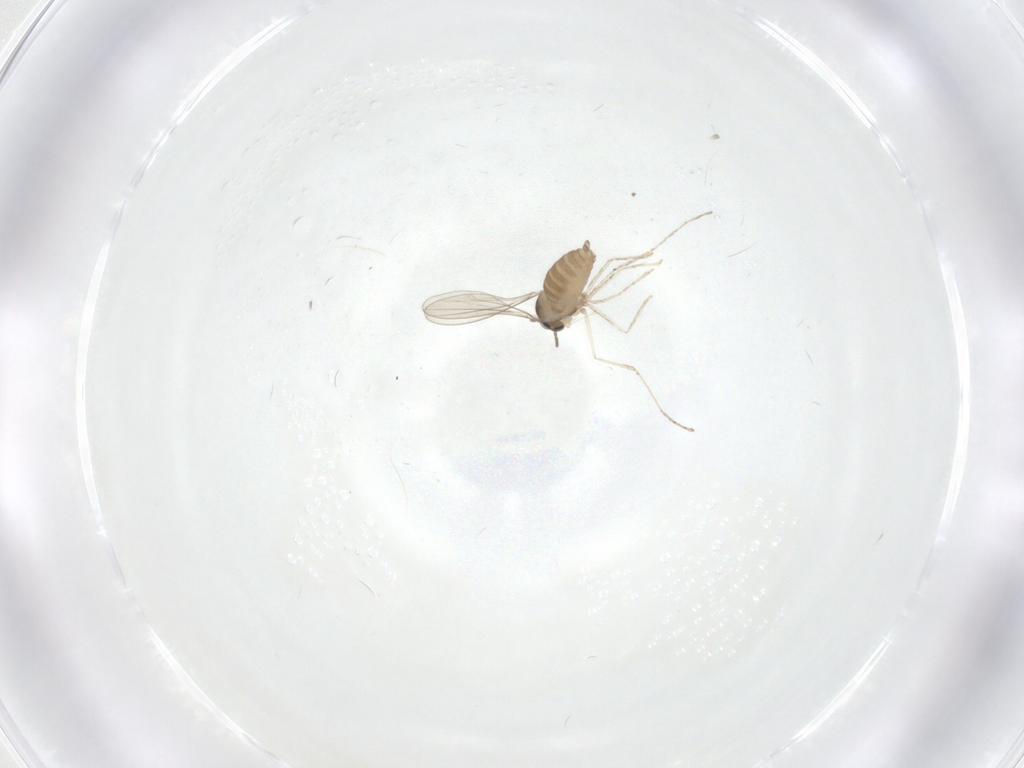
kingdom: Animalia
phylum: Arthropoda
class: Insecta
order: Diptera
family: Cecidomyiidae
